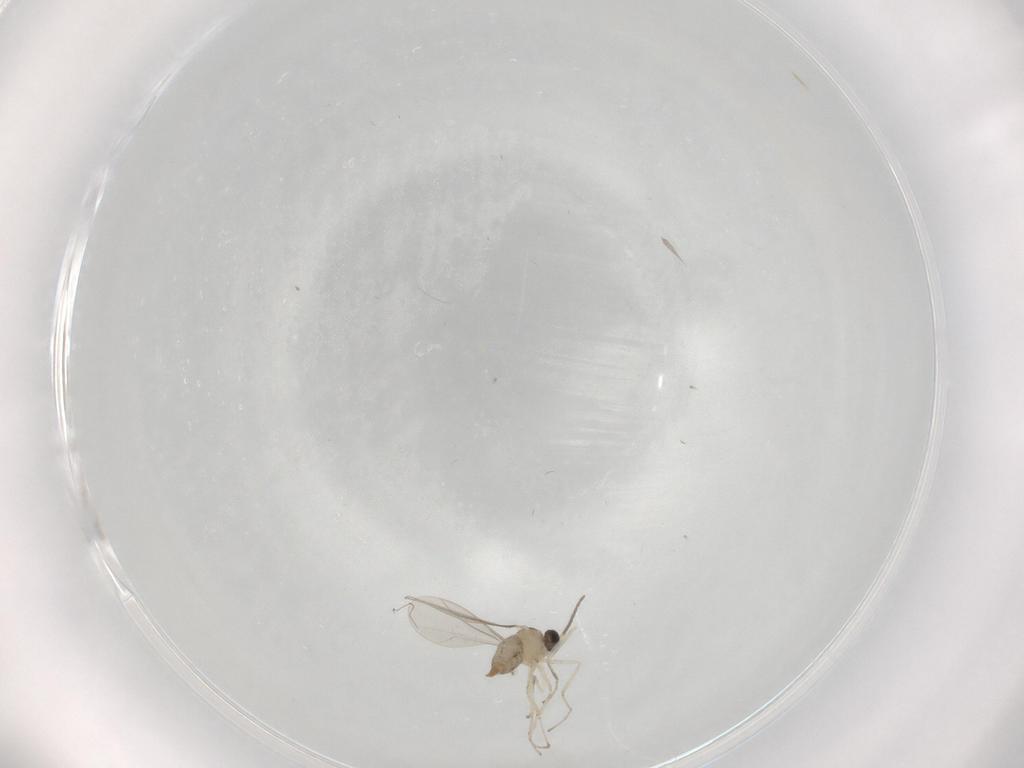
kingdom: Animalia
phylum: Arthropoda
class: Insecta
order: Diptera
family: Cecidomyiidae
